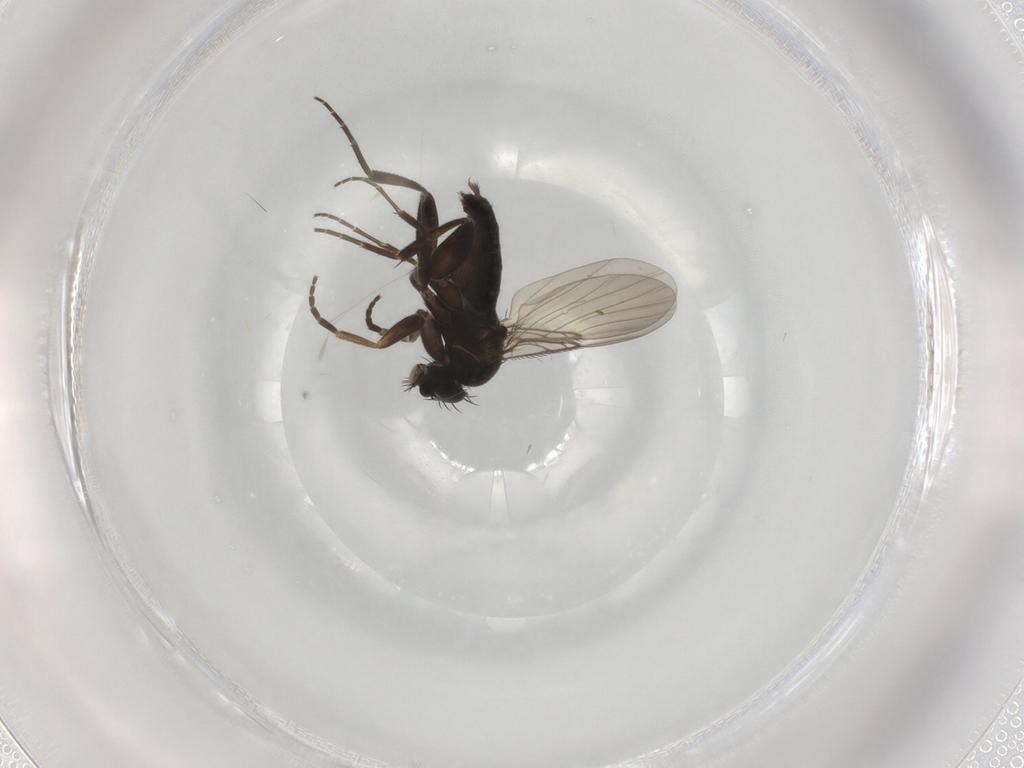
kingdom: Animalia
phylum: Arthropoda
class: Insecta
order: Diptera
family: Phoridae
